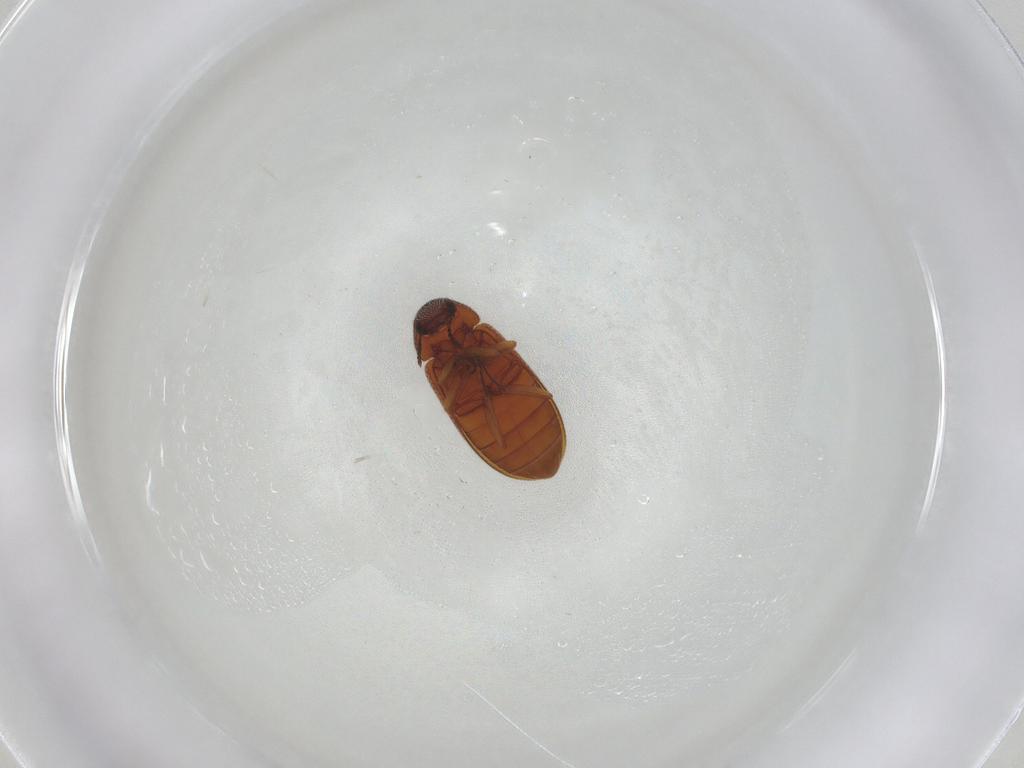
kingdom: Animalia
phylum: Arthropoda
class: Insecta
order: Coleoptera
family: Rhadalidae
